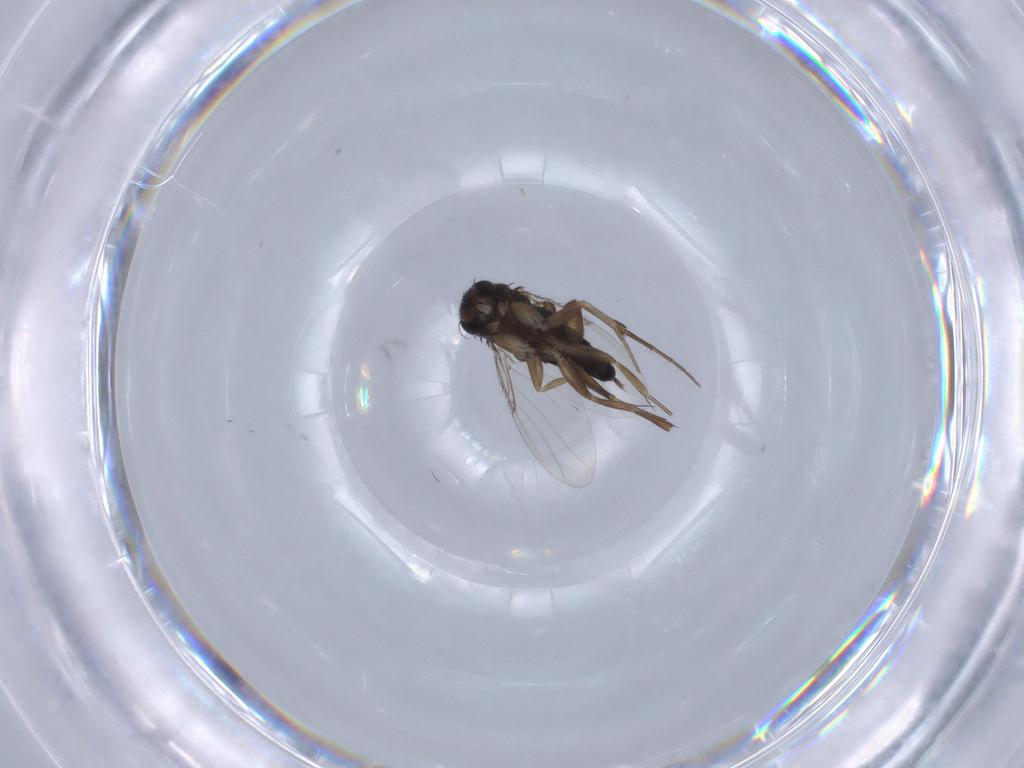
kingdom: Animalia
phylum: Arthropoda
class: Insecta
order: Diptera
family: Phoridae
